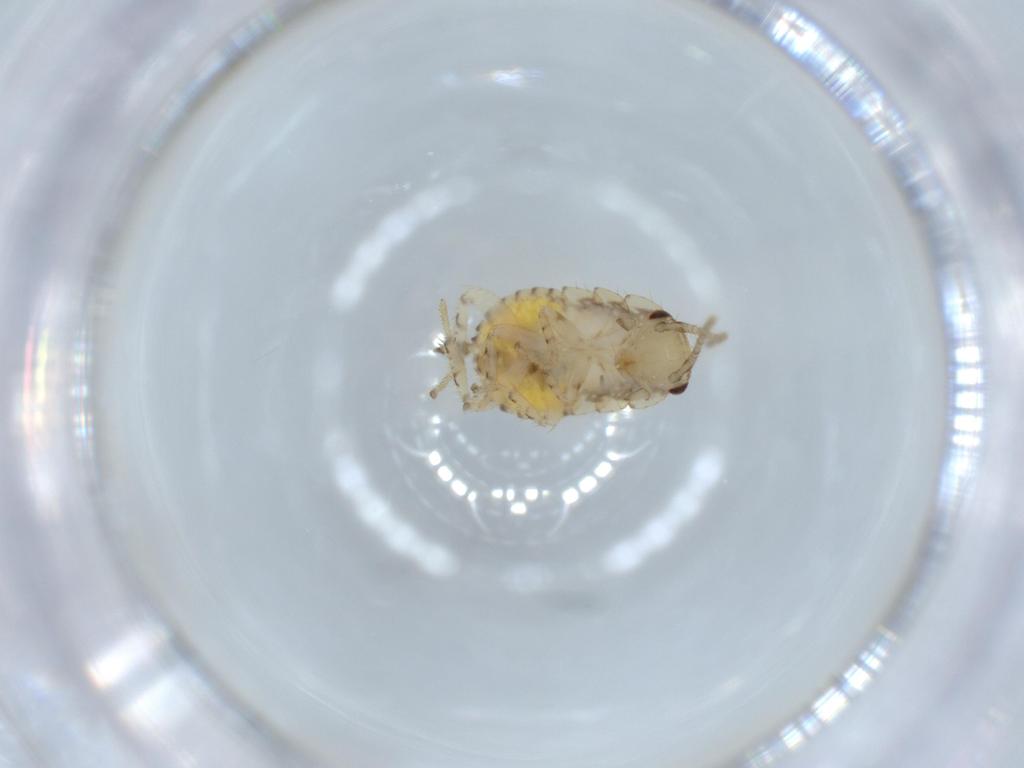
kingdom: Animalia
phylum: Arthropoda
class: Insecta
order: Blattodea
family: Ectobiidae
